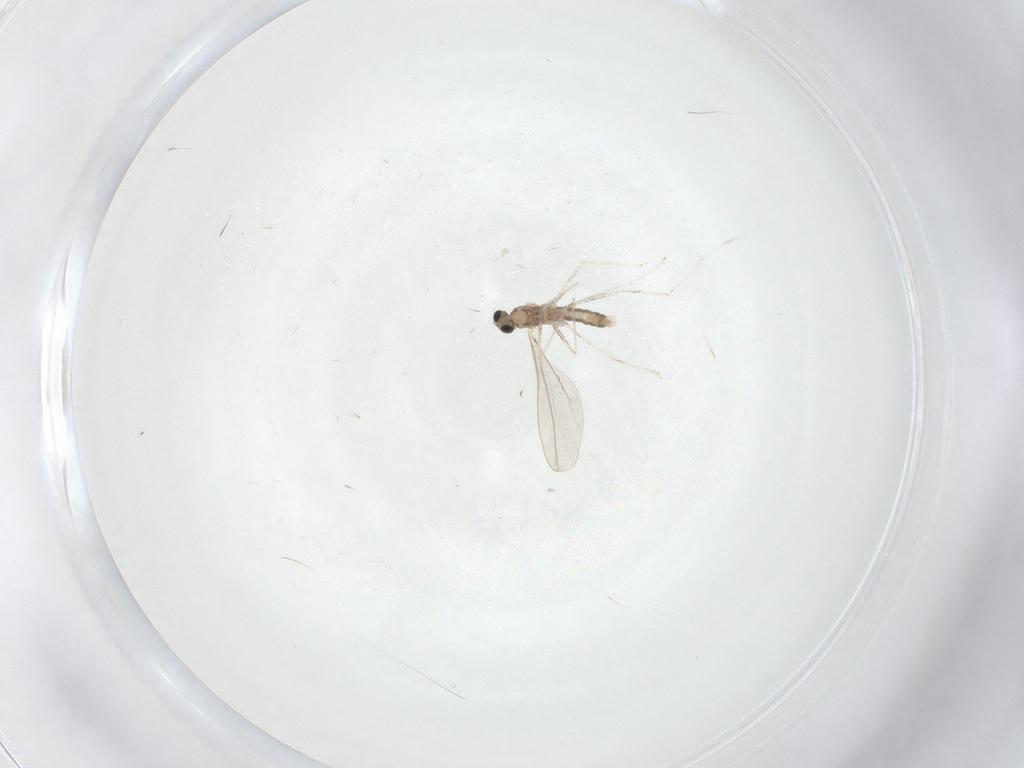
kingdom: Animalia
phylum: Arthropoda
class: Insecta
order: Diptera
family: Cecidomyiidae
